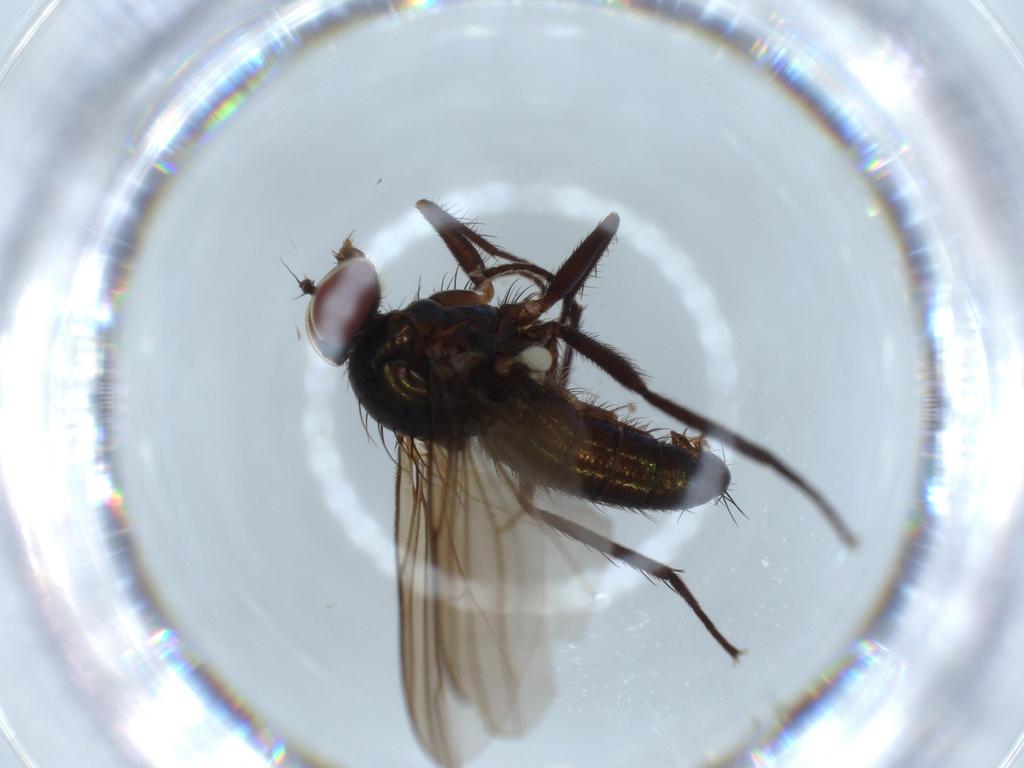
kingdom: Animalia
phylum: Arthropoda
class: Insecta
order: Diptera
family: Dolichopodidae
